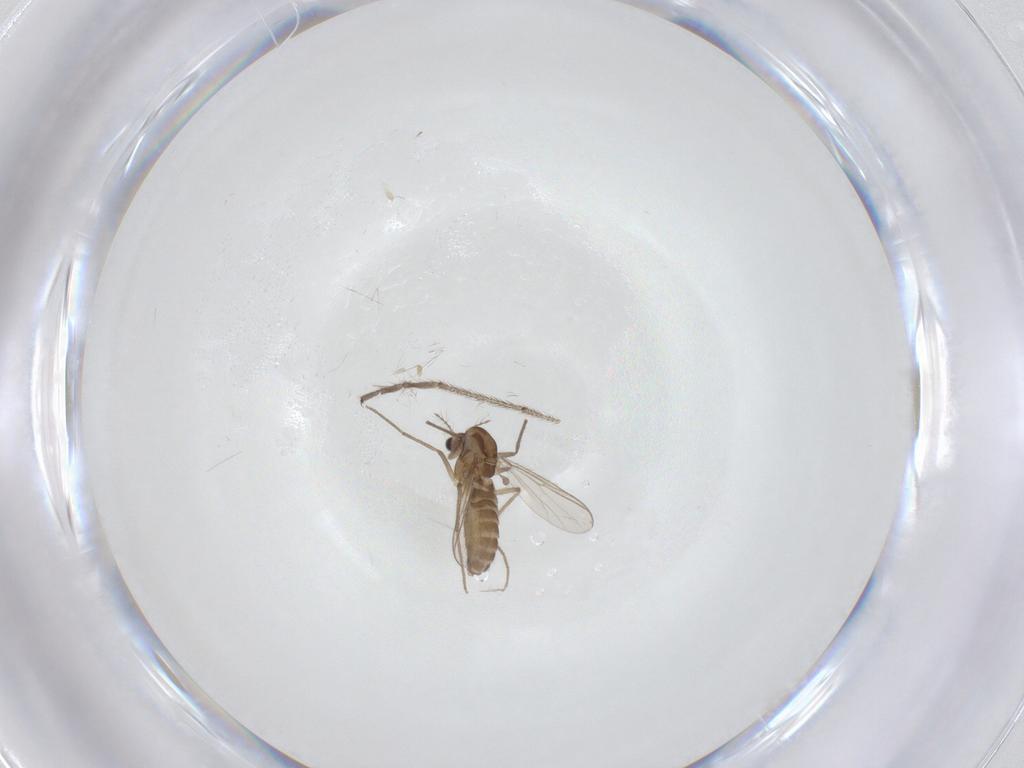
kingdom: Animalia
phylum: Arthropoda
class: Insecta
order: Diptera
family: Chironomidae
